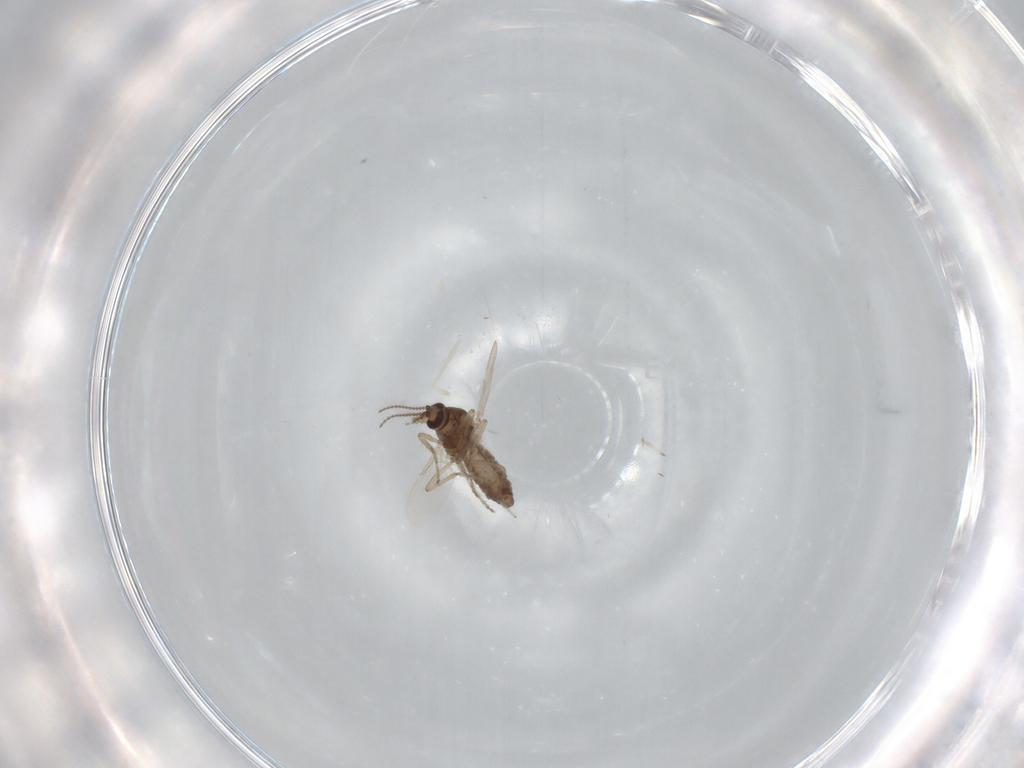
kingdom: Animalia
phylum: Arthropoda
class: Insecta
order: Diptera
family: Ceratopogonidae
